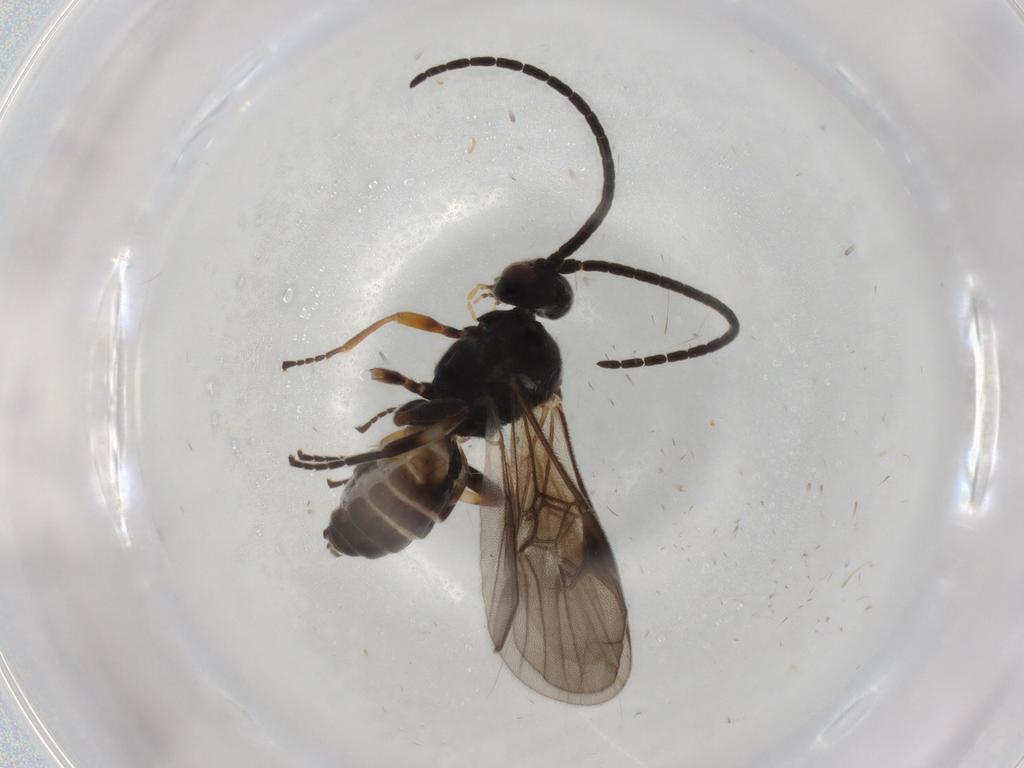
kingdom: Animalia
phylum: Arthropoda
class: Insecta
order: Hymenoptera
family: Braconidae
